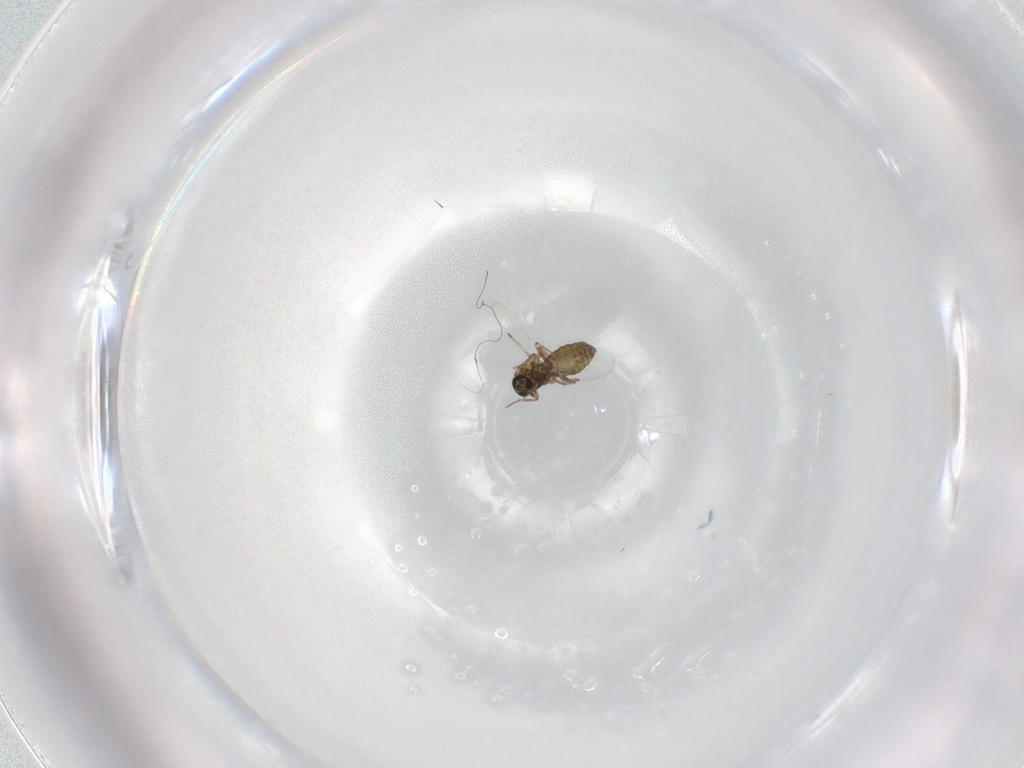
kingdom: Animalia
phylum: Arthropoda
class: Insecta
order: Diptera
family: Ceratopogonidae
